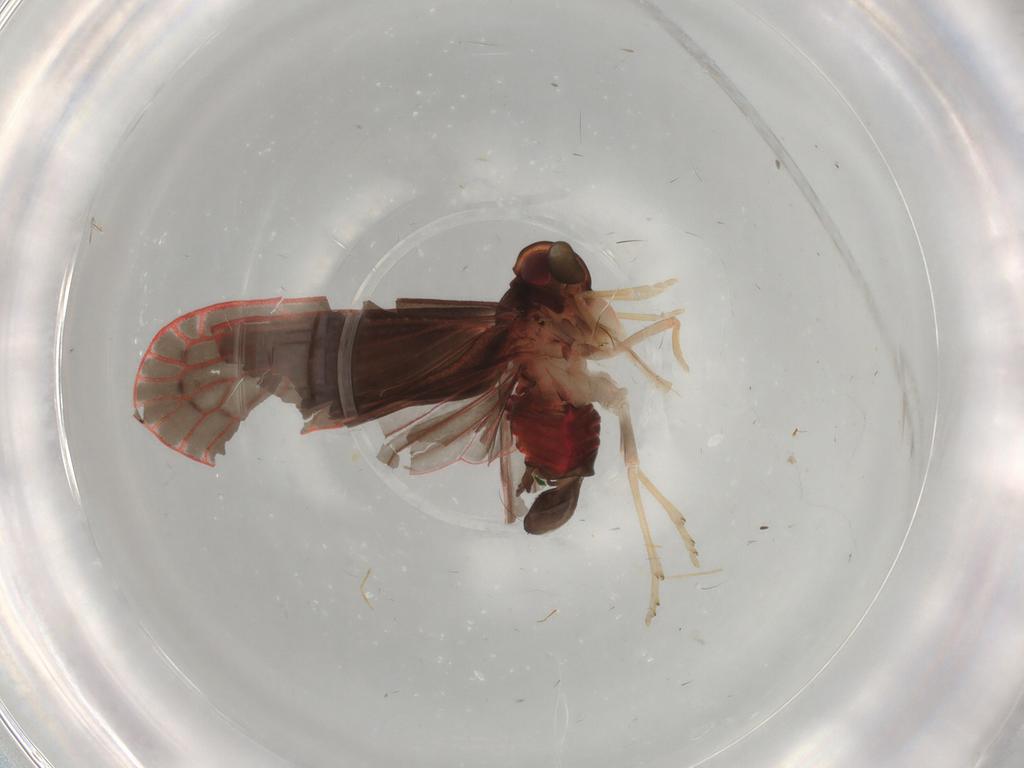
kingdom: Animalia
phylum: Arthropoda
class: Insecta
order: Hemiptera
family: Derbidae
